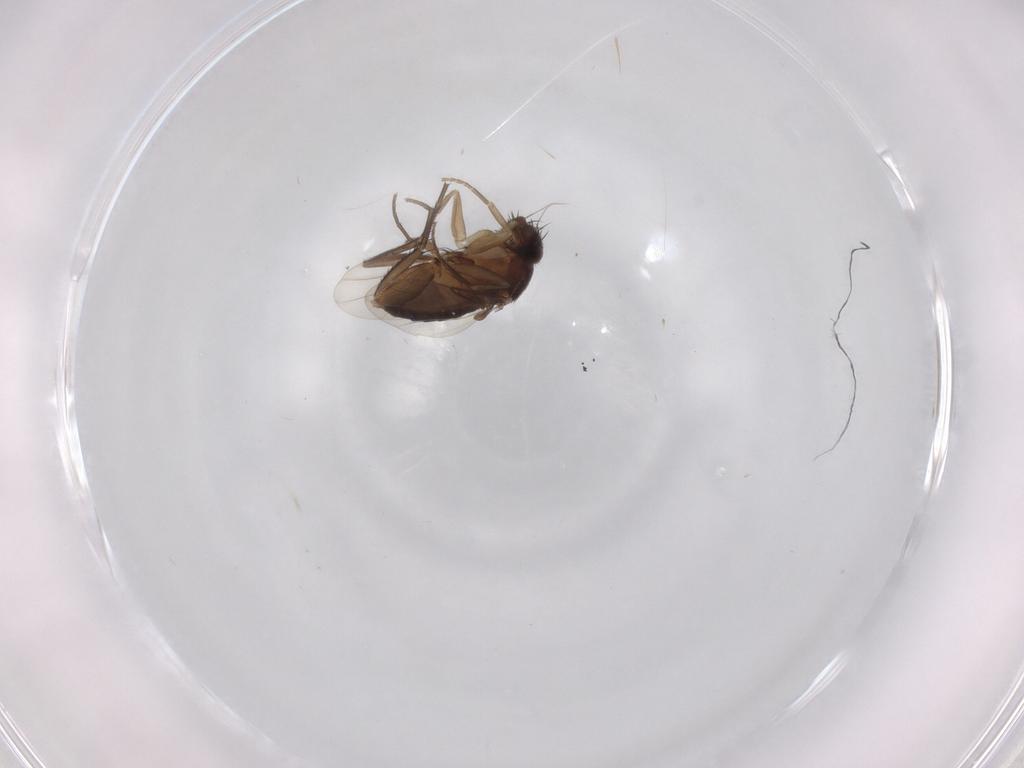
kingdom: Animalia
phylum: Arthropoda
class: Insecta
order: Diptera
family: Phoridae
